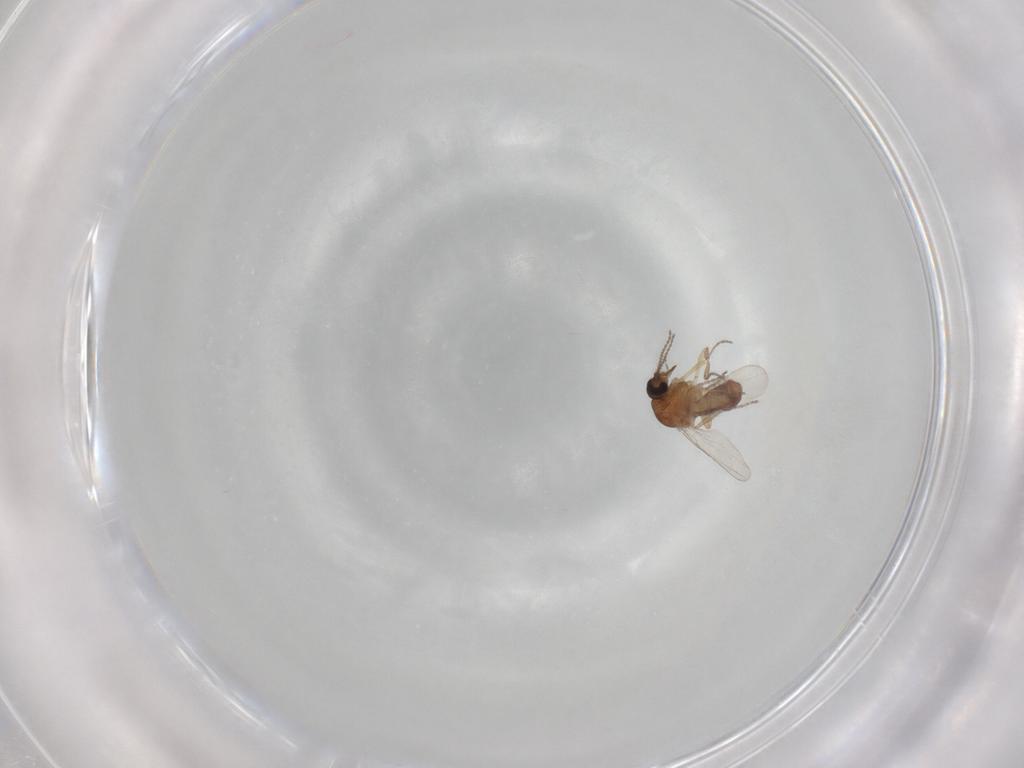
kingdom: Animalia
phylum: Arthropoda
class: Insecta
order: Diptera
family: Ceratopogonidae
